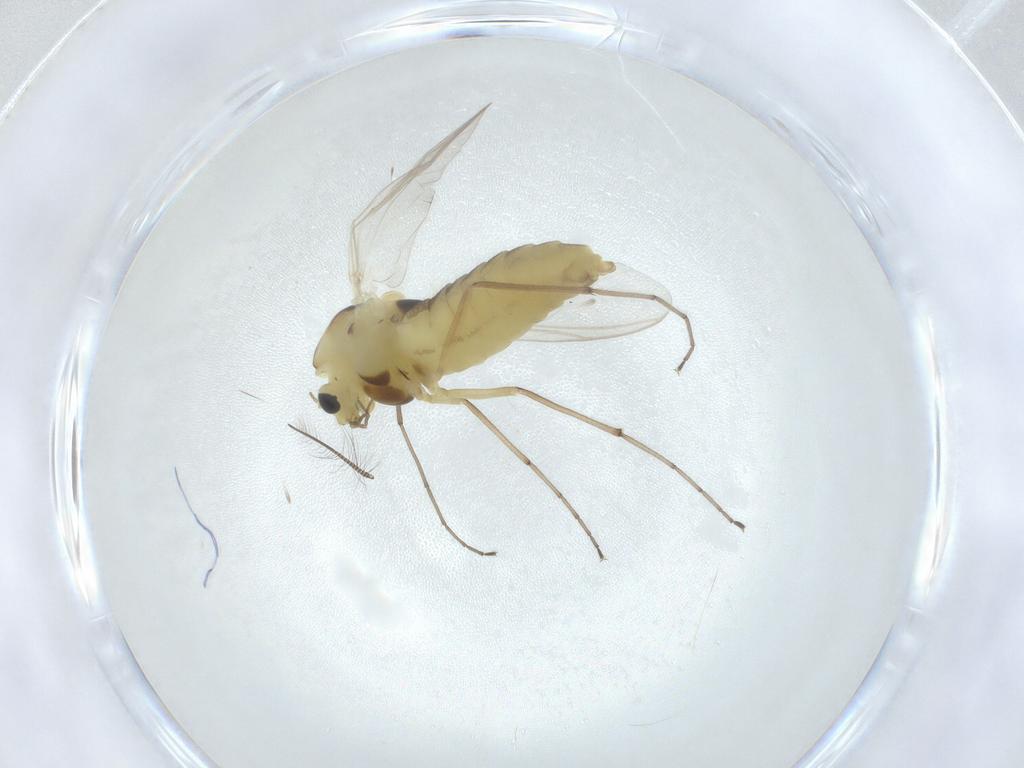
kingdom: Animalia
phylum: Arthropoda
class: Insecta
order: Diptera
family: Chironomidae
